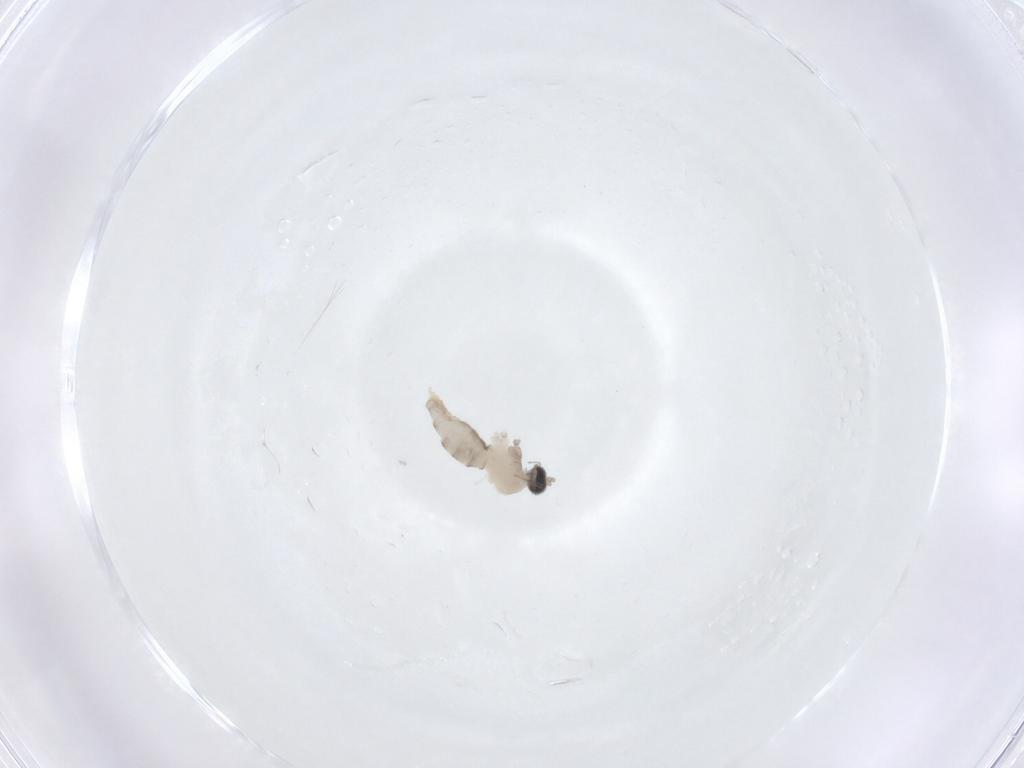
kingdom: Animalia
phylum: Arthropoda
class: Insecta
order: Diptera
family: Cecidomyiidae
